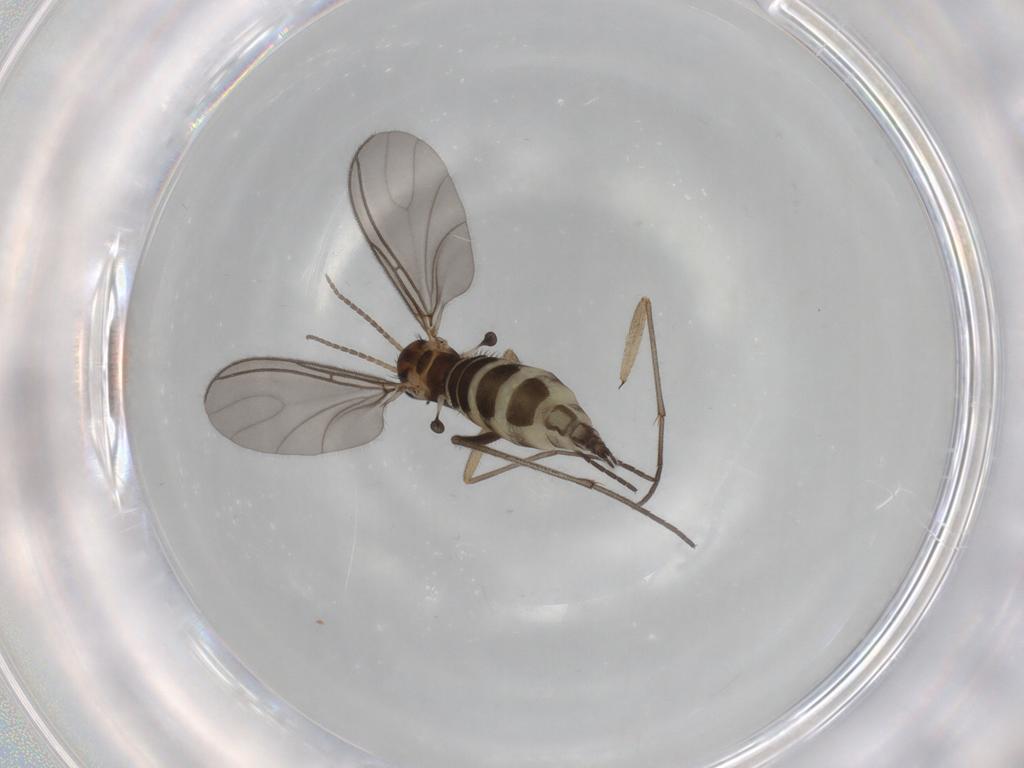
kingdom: Animalia
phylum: Arthropoda
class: Insecta
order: Diptera
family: Sciaridae
